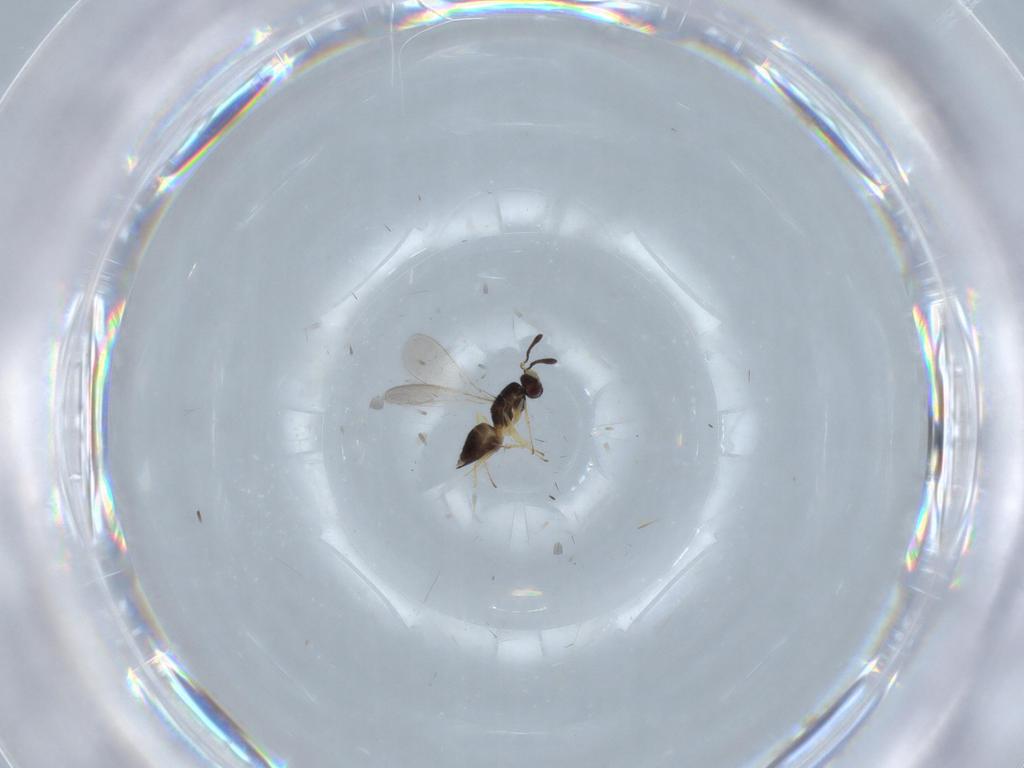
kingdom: Animalia
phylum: Arthropoda
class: Insecta
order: Hymenoptera
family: Mymaridae
